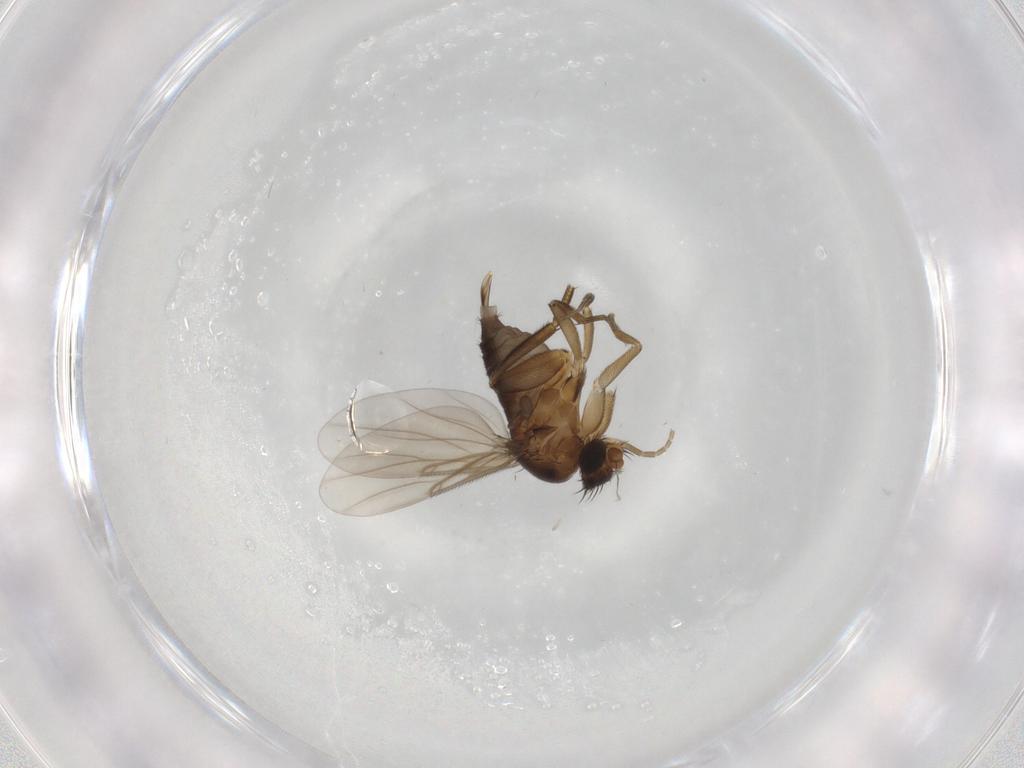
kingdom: Animalia
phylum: Arthropoda
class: Insecta
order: Diptera
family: Phoridae
